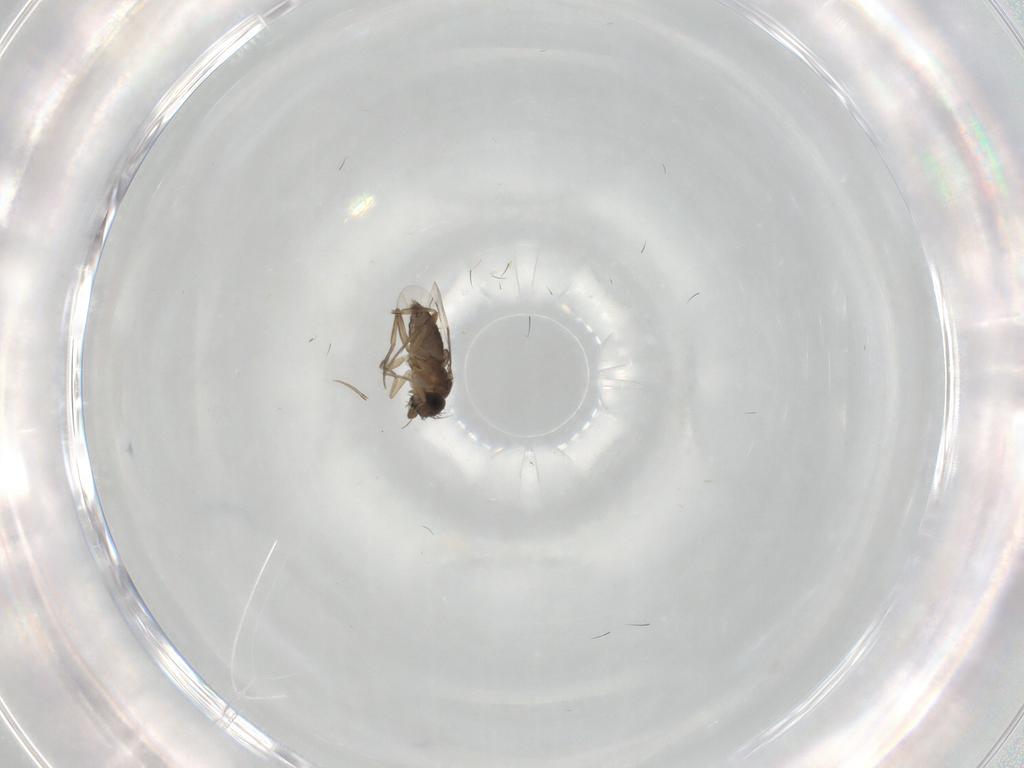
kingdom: Animalia
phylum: Arthropoda
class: Insecta
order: Diptera
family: Phoridae
